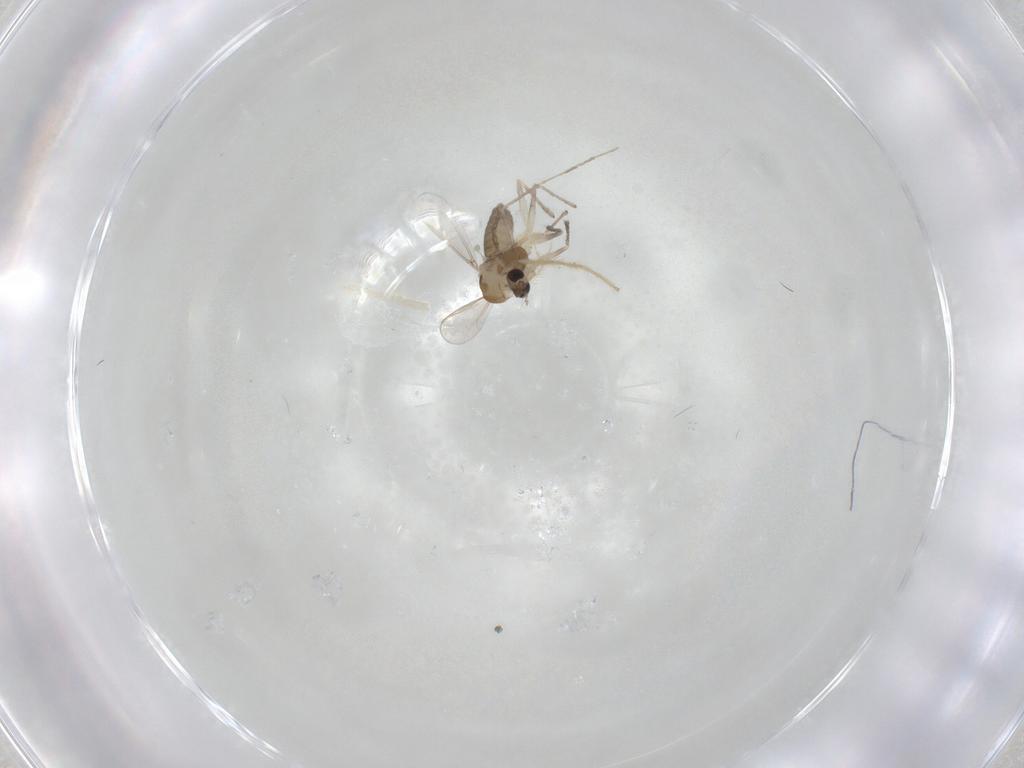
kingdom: Animalia
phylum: Arthropoda
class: Insecta
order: Diptera
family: Chironomidae
